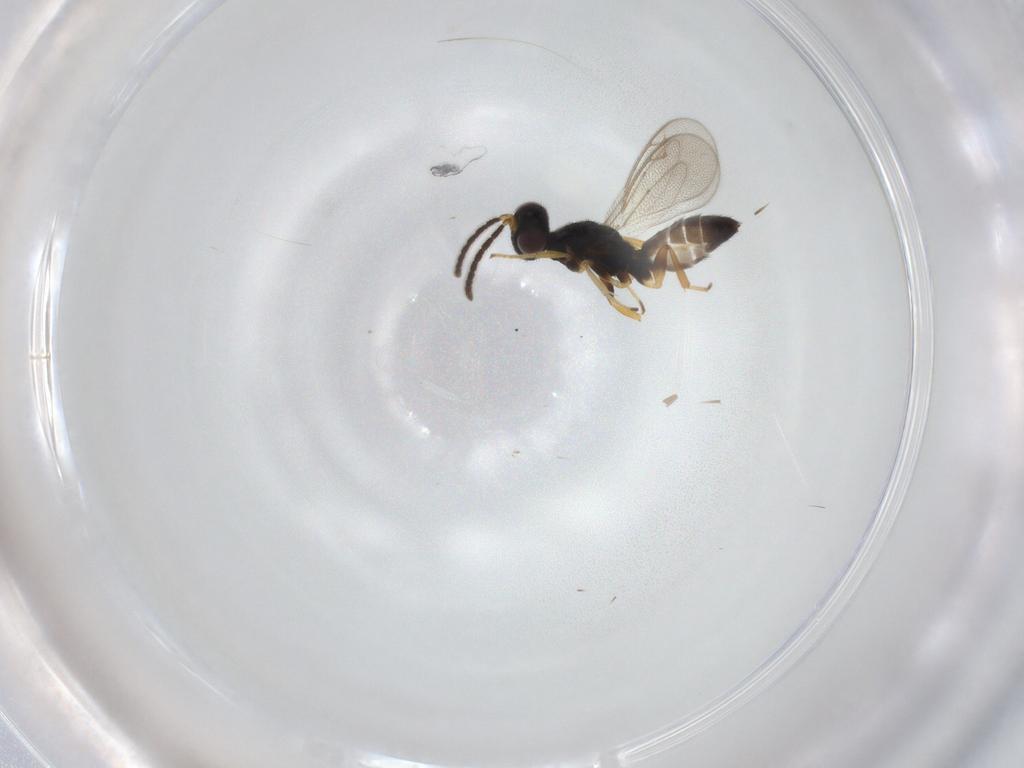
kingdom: Animalia
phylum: Arthropoda
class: Insecta
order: Hymenoptera
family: Eupelmidae
